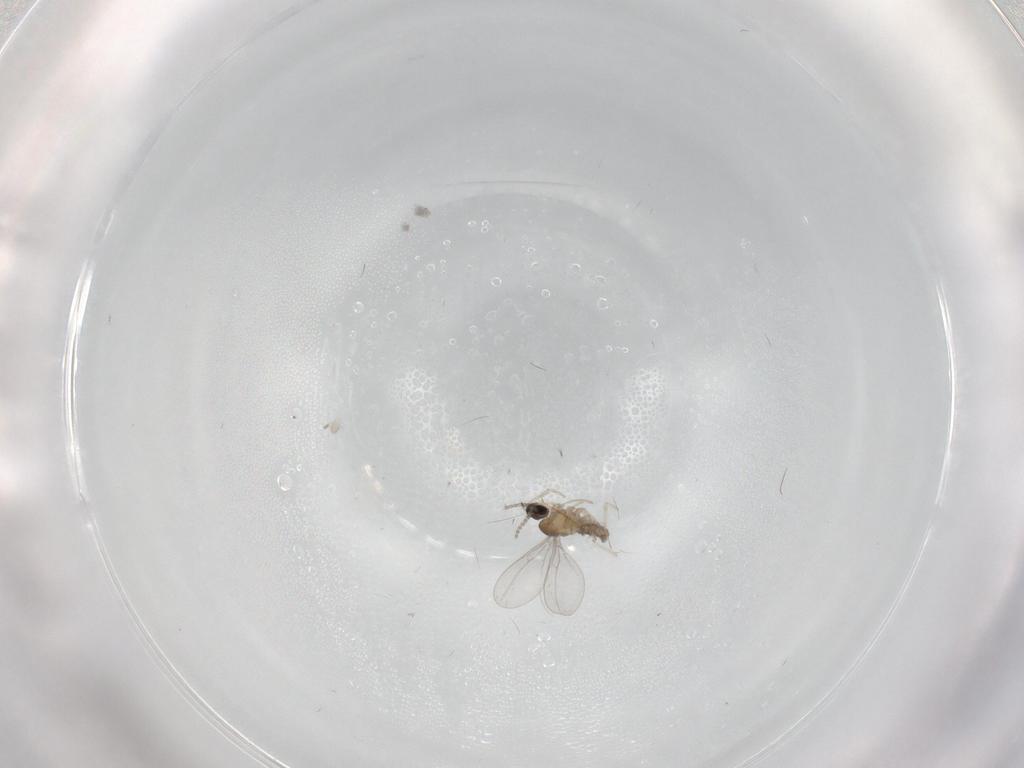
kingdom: Animalia
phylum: Arthropoda
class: Insecta
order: Diptera
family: Cecidomyiidae
